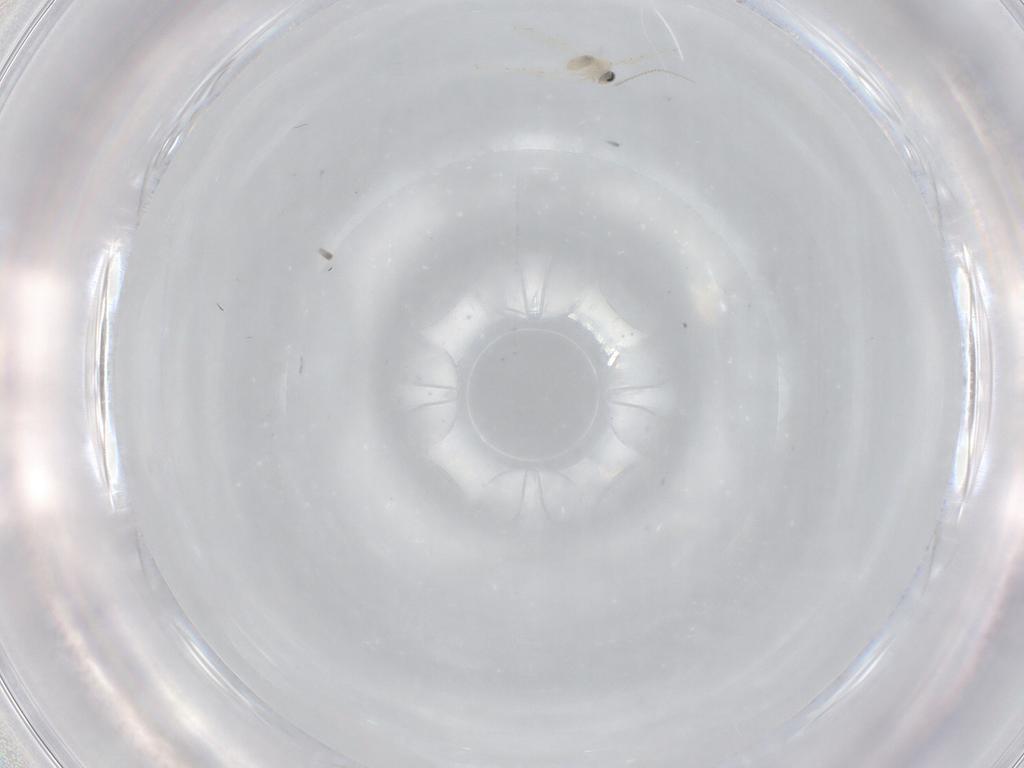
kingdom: Animalia
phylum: Arthropoda
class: Insecta
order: Diptera
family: Cecidomyiidae
